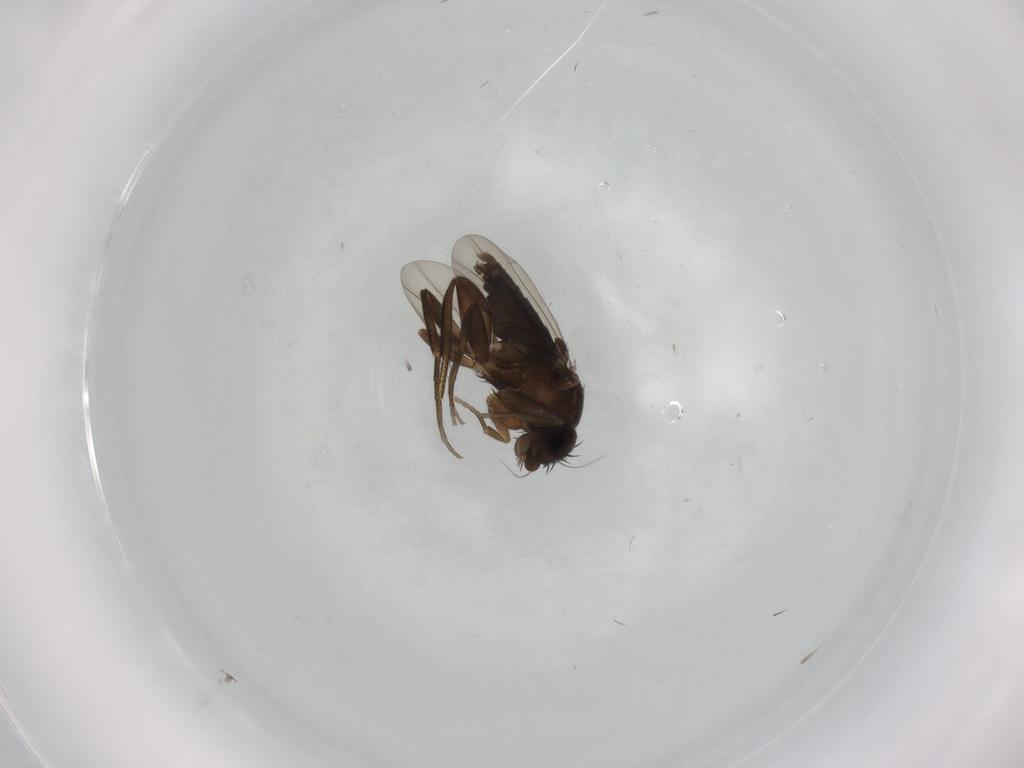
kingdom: Animalia
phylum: Arthropoda
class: Insecta
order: Diptera
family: Phoridae
